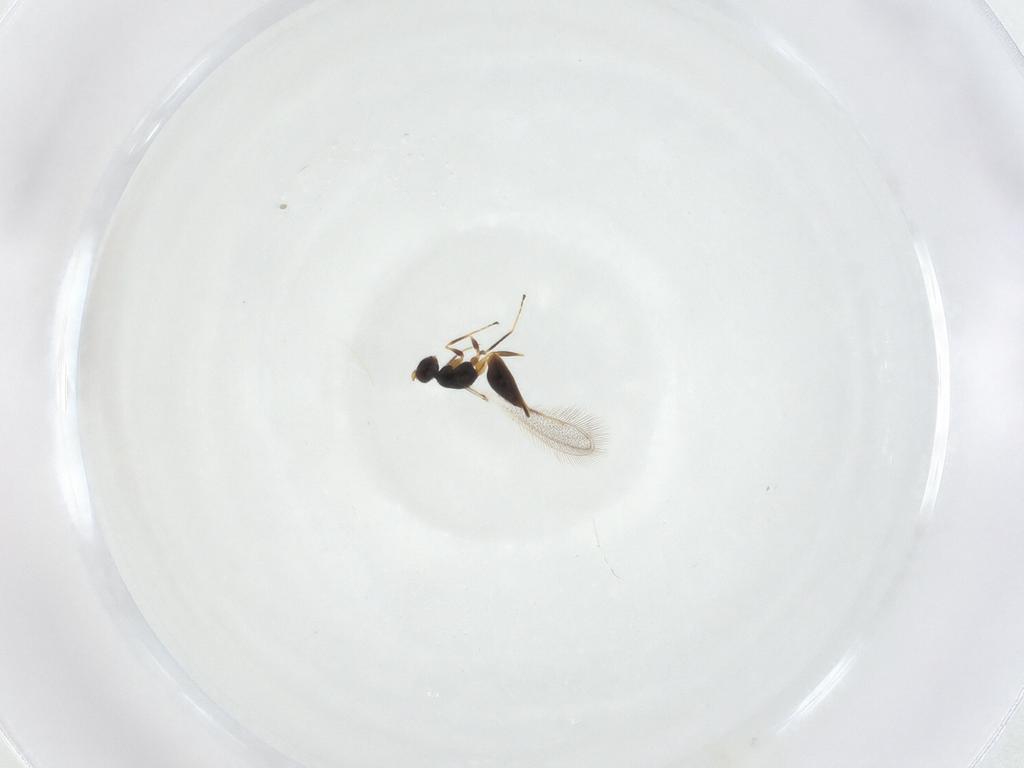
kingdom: Animalia
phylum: Arthropoda
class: Insecta
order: Hymenoptera
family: Mymaridae
